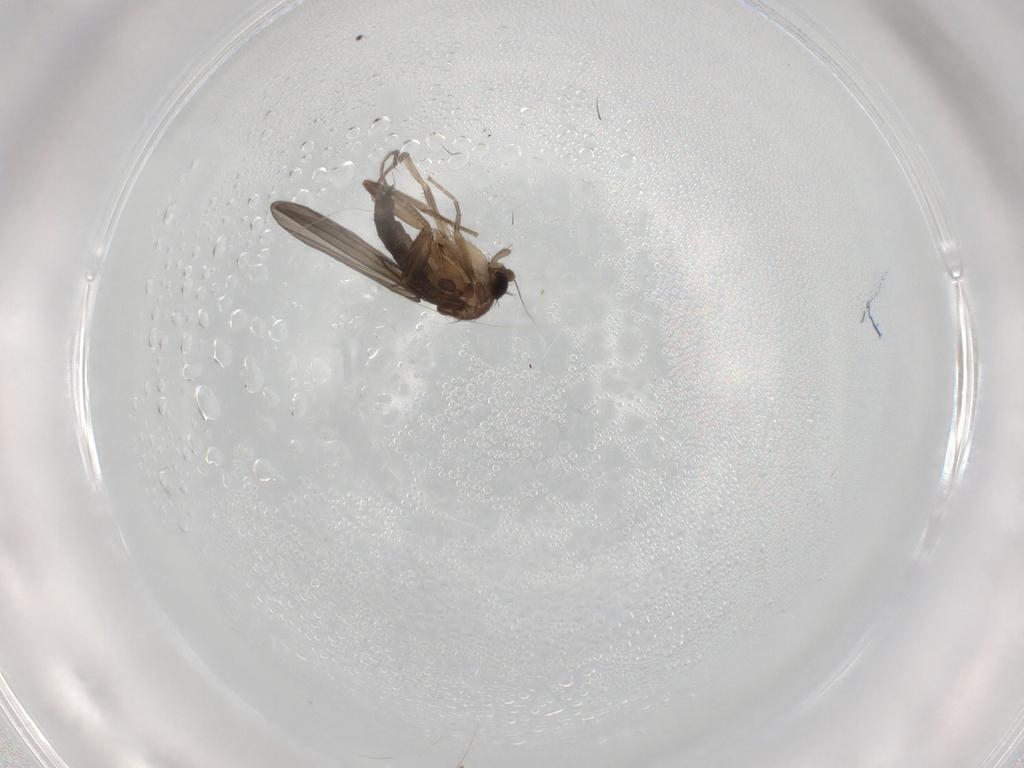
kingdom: Animalia
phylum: Arthropoda
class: Insecta
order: Diptera
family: Phoridae
